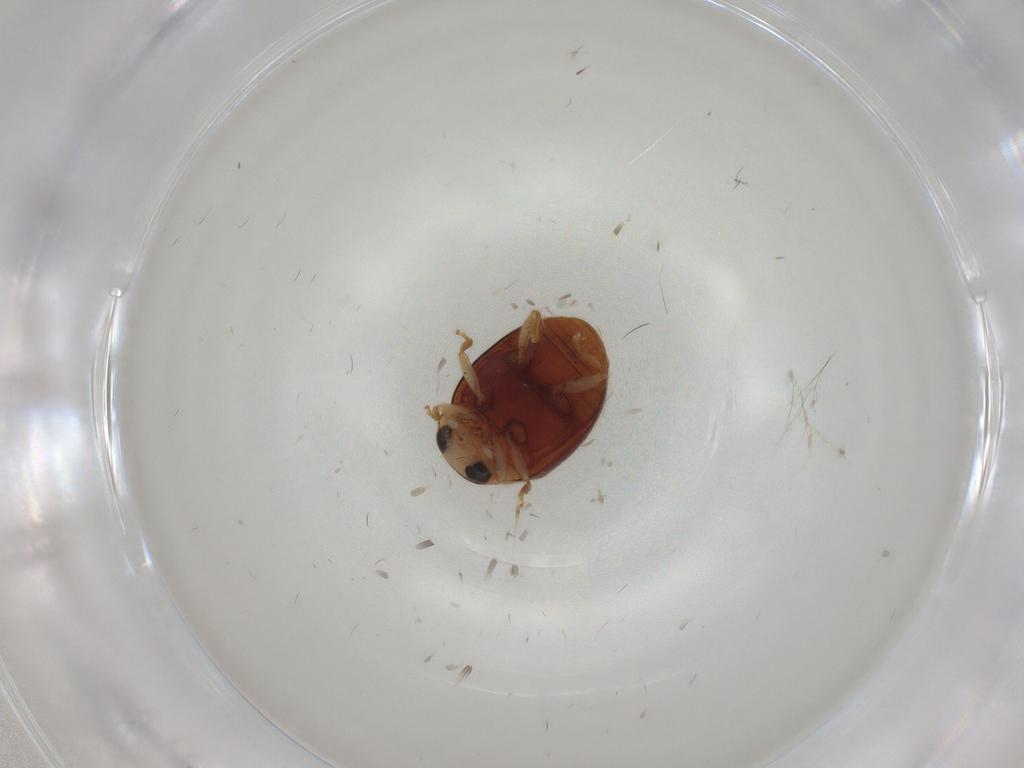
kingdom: Animalia
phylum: Arthropoda
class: Insecta
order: Coleoptera
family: Coccinellidae
